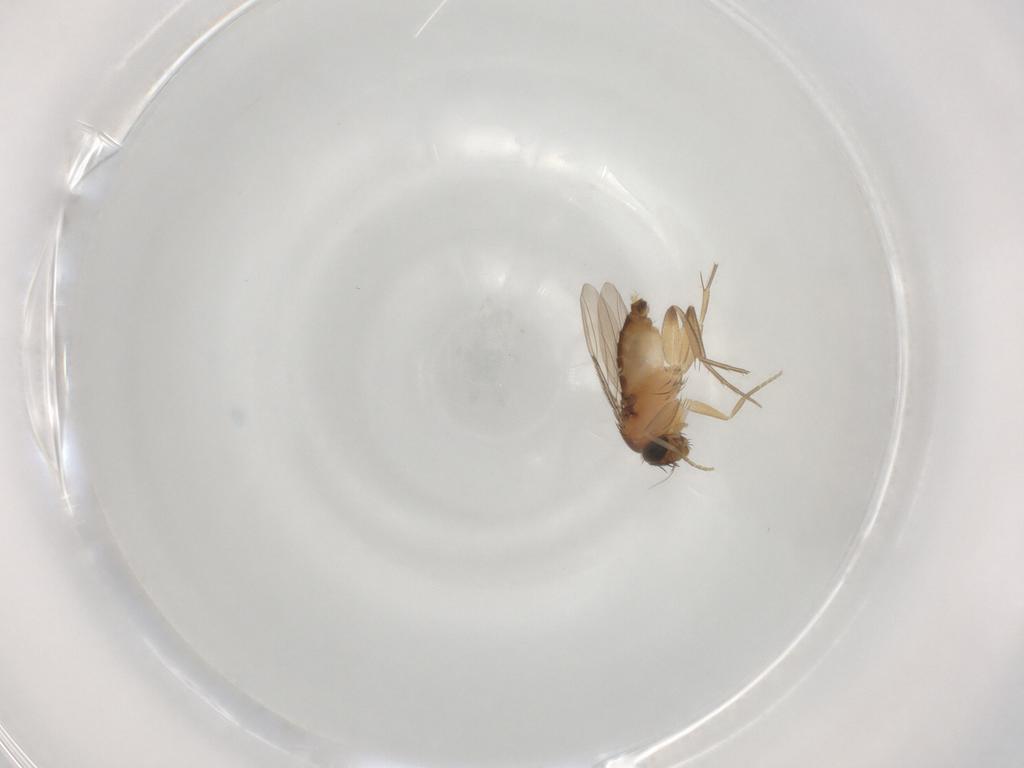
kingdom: Animalia
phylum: Arthropoda
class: Insecta
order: Diptera
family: Phoridae
